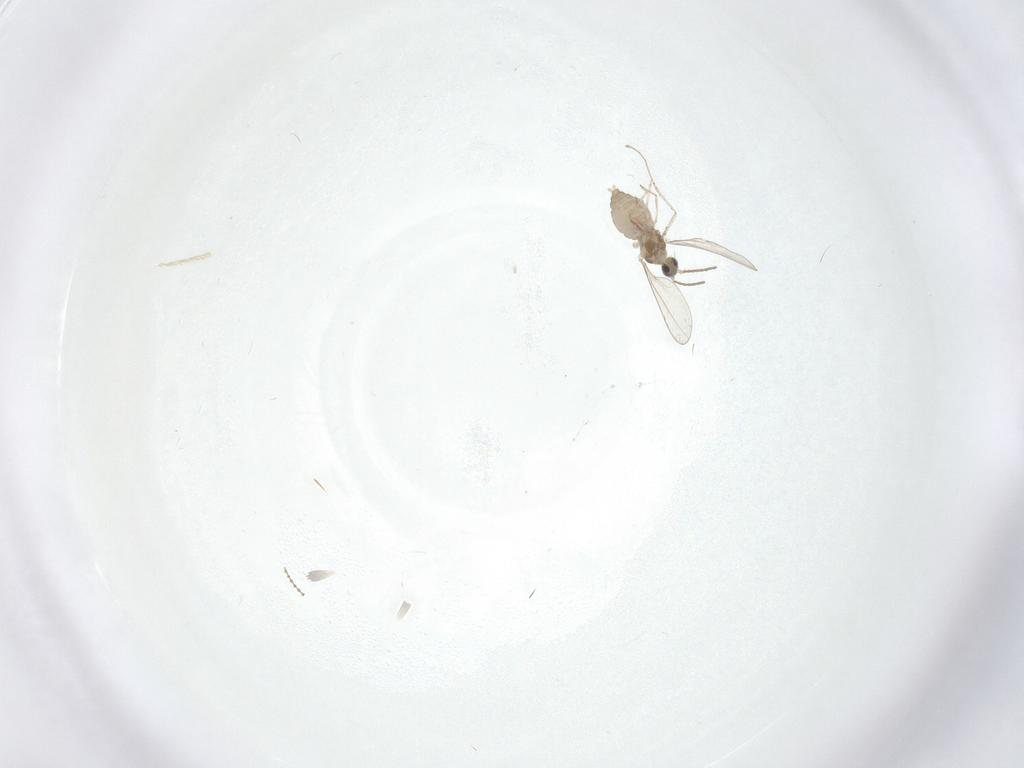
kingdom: Animalia
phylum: Arthropoda
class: Insecta
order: Diptera
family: Cecidomyiidae
